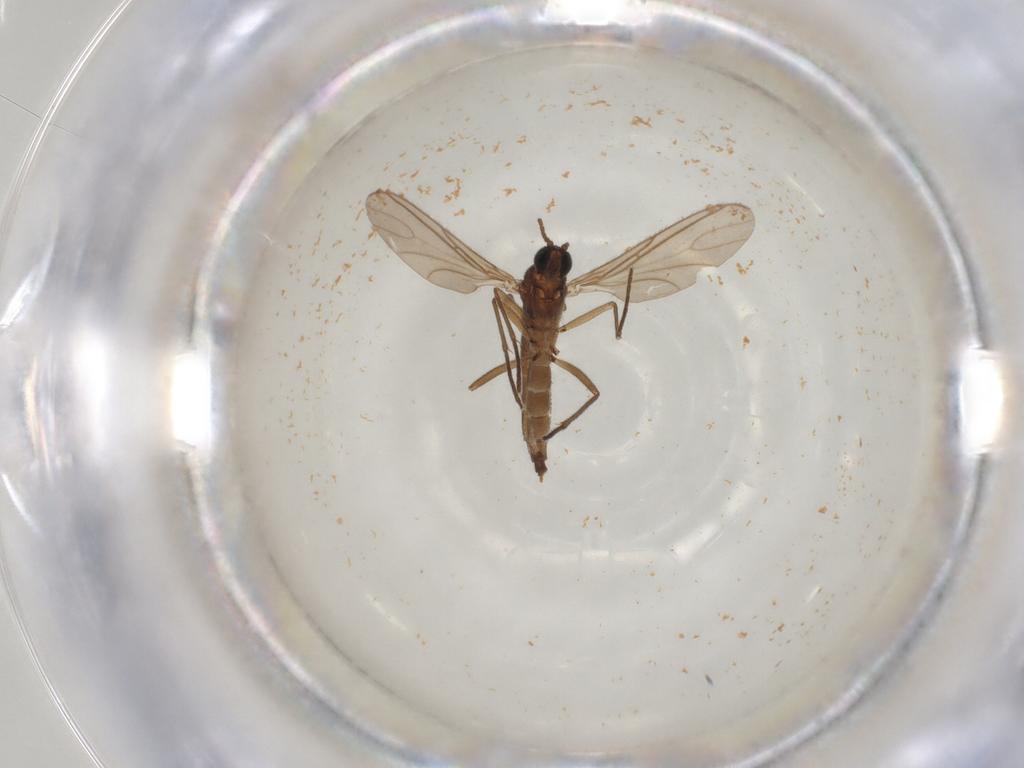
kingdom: Animalia
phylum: Arthropoda
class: Insecta
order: Diptera
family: Sciaridae
